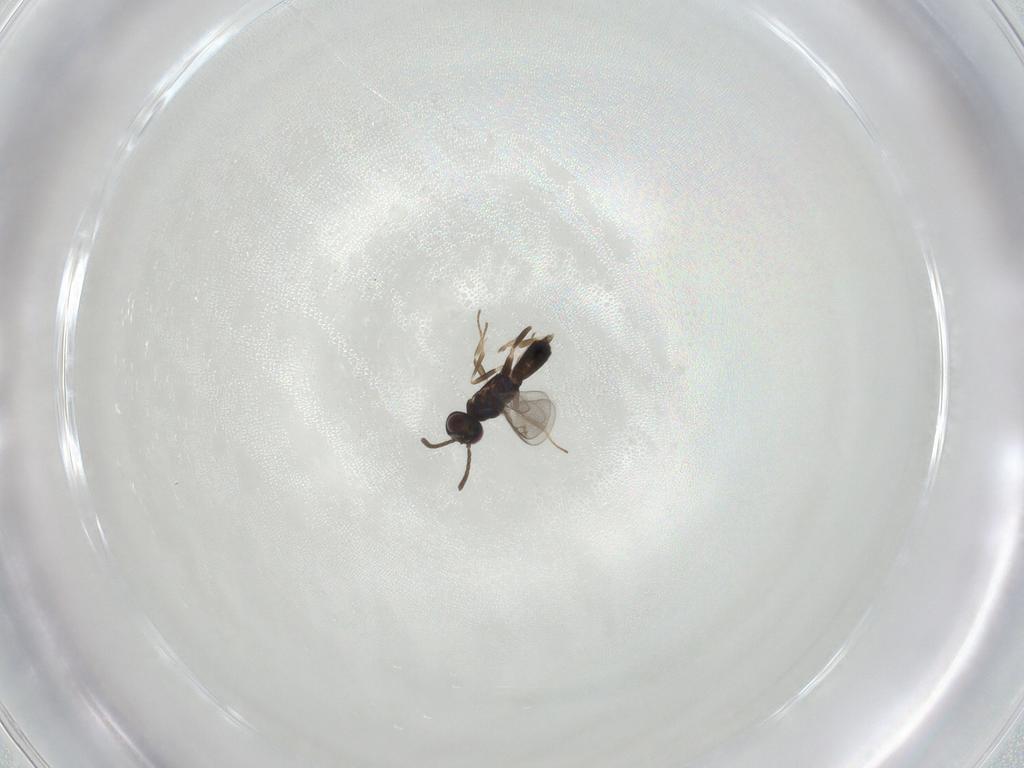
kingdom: Animalia
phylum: Arthropoda
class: Insecta
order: Hymenoptera
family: Eupelmidae
